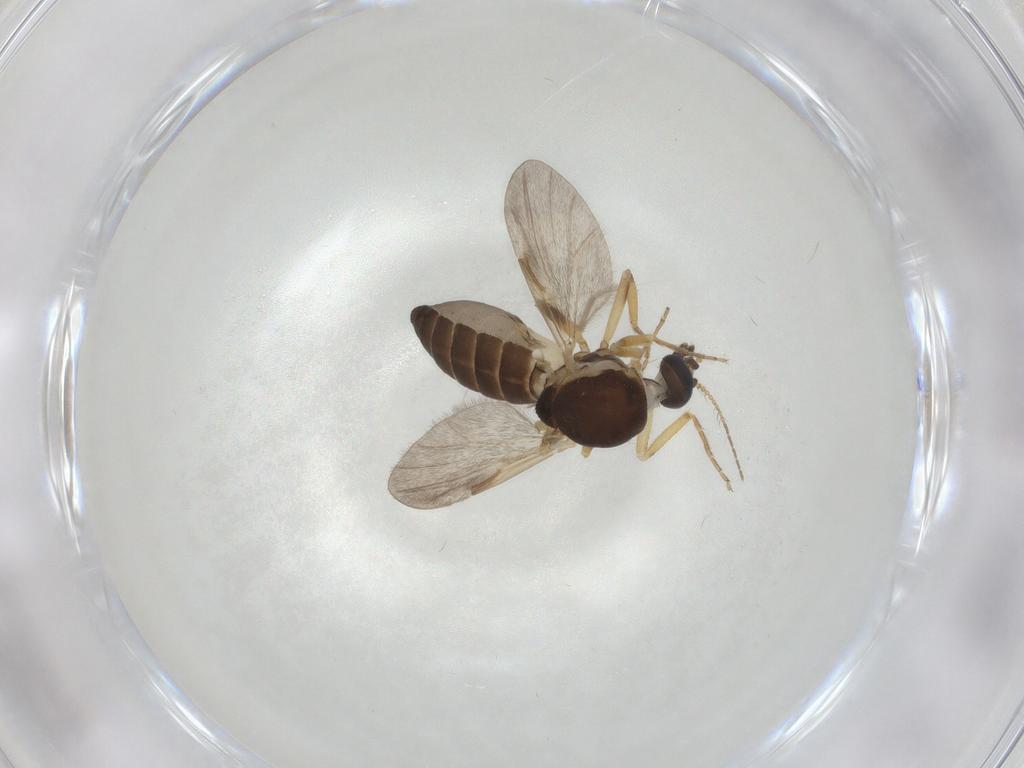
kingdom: Animalia
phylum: Arthropoda
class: Insecta
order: Diptera
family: Ceratopogonidae
